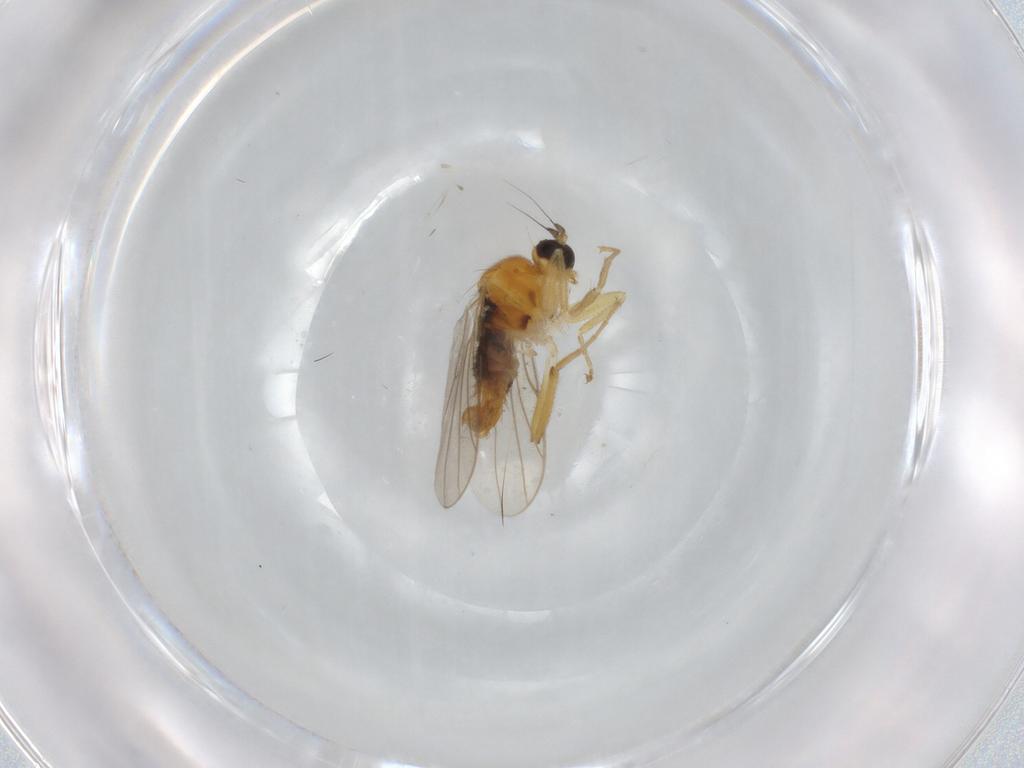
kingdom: Animalia
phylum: Arthropoda
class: Insecta
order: Diptera
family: Hybotidae
